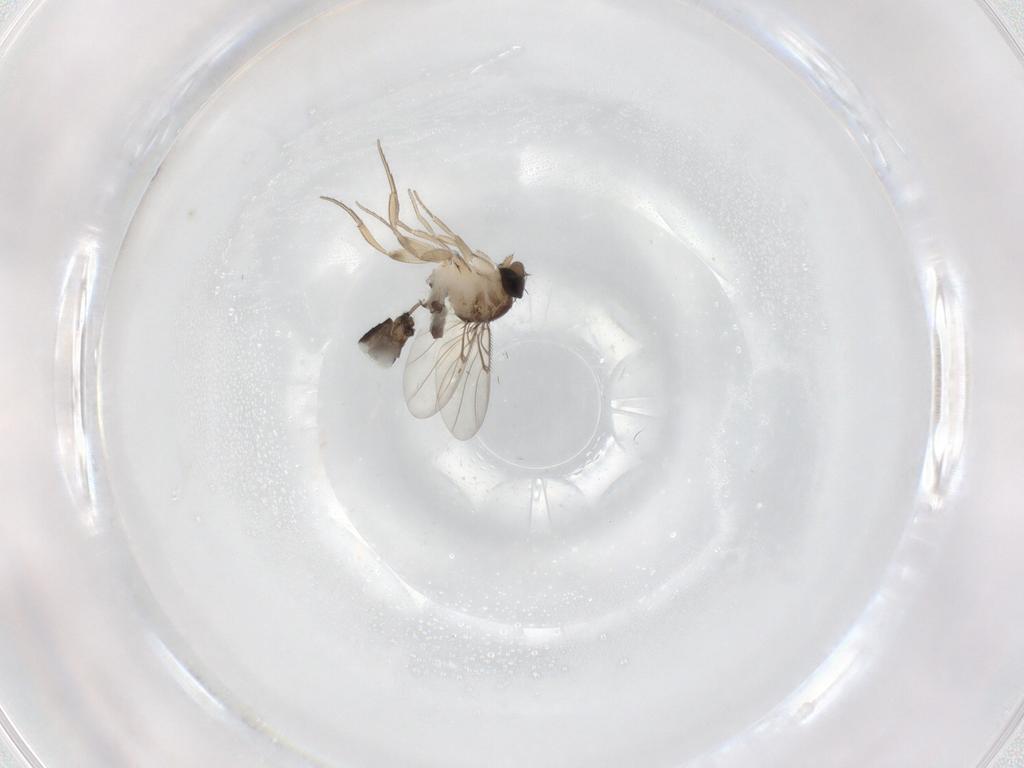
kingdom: Animalia
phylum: Arthropoda
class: Insecta
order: Diptera
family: Phoridae
